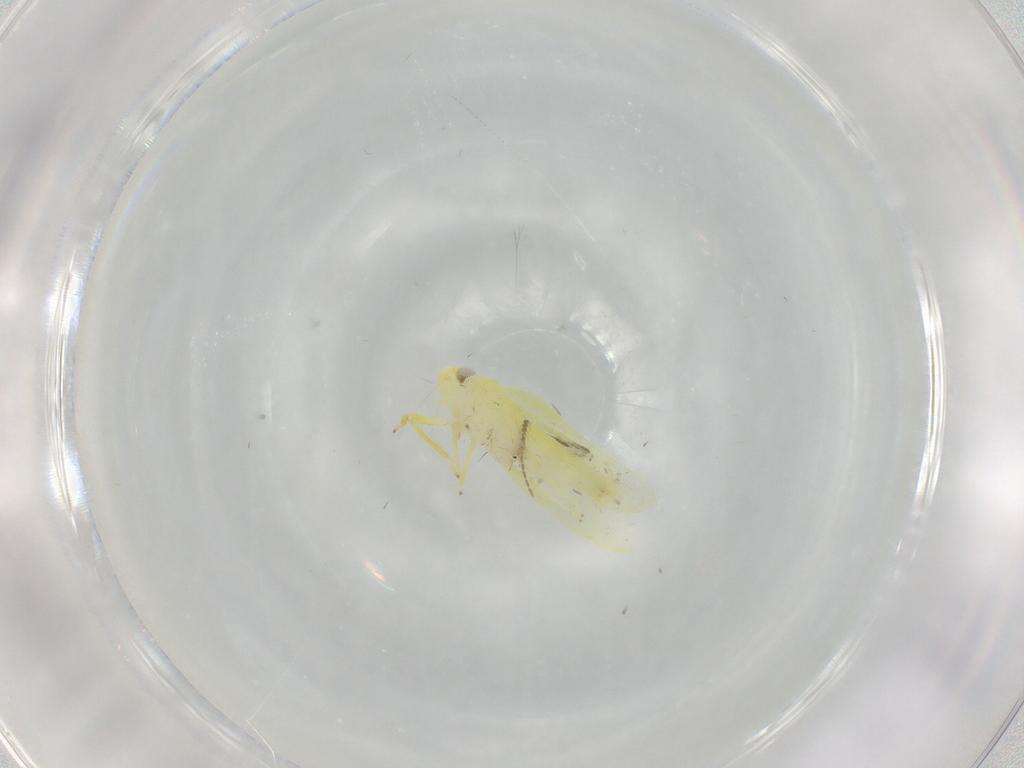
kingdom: Animalia
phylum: Arthropoda
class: Insecta
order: Hemiptera
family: Cicadellidae
